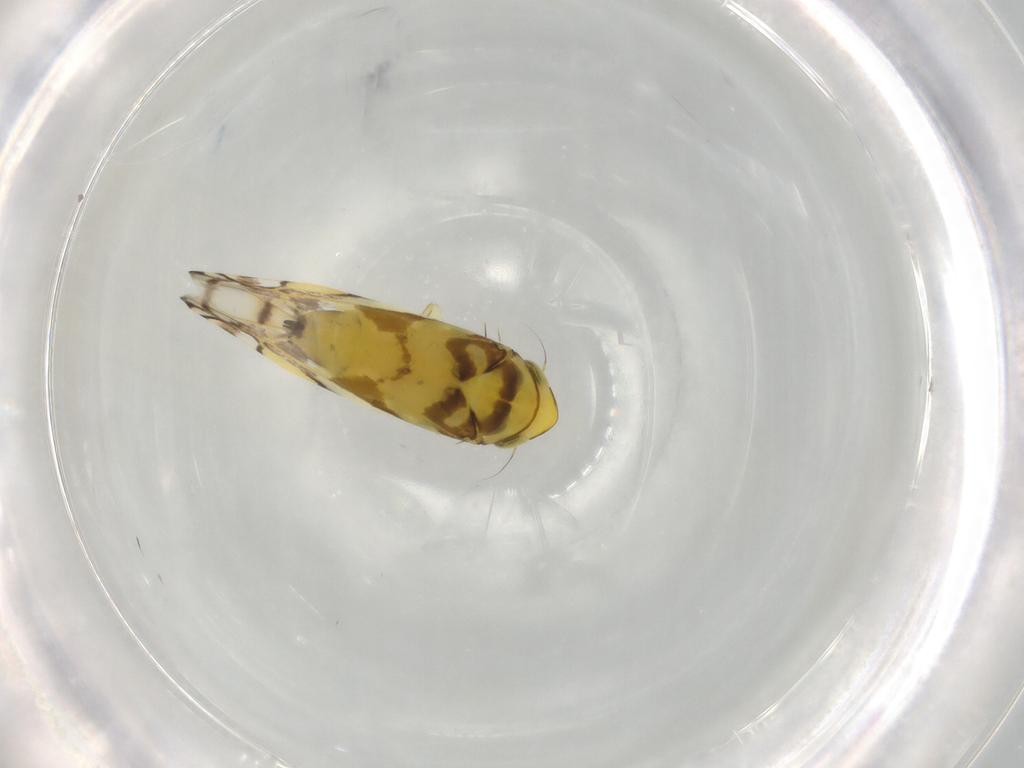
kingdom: Animalia
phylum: Arthropoda
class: Insecta
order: Hemiptera
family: Cicadellidae
